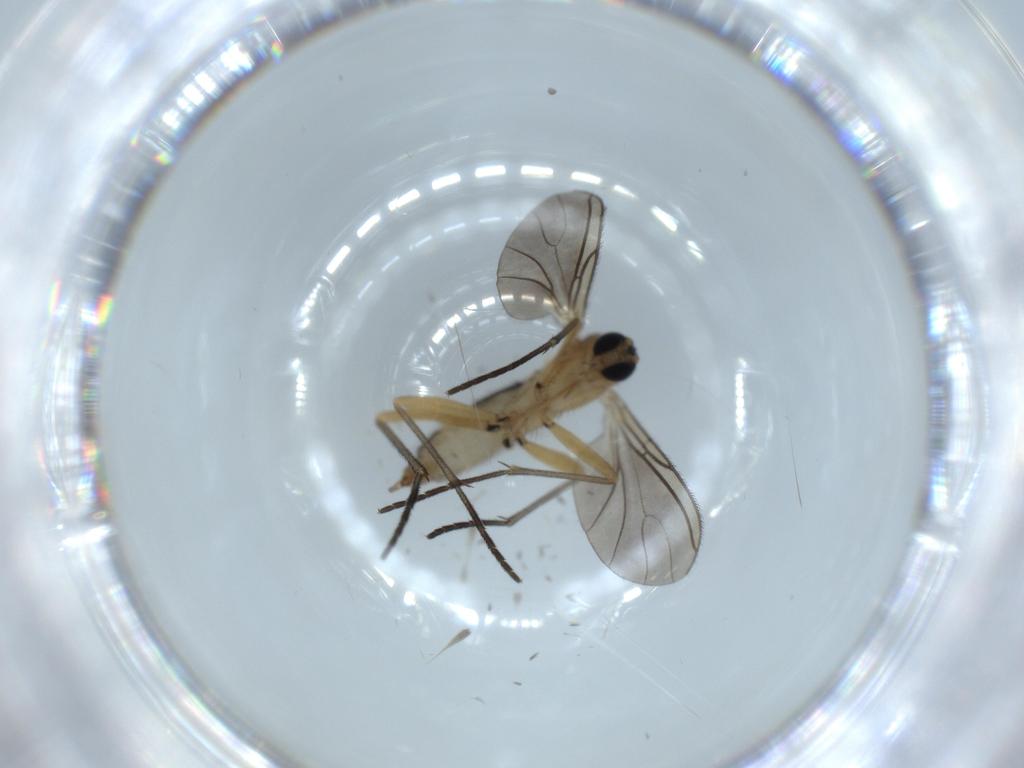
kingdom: Animalia
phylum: Arthropoda
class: Insecta
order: Diptera
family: Sciaridae
